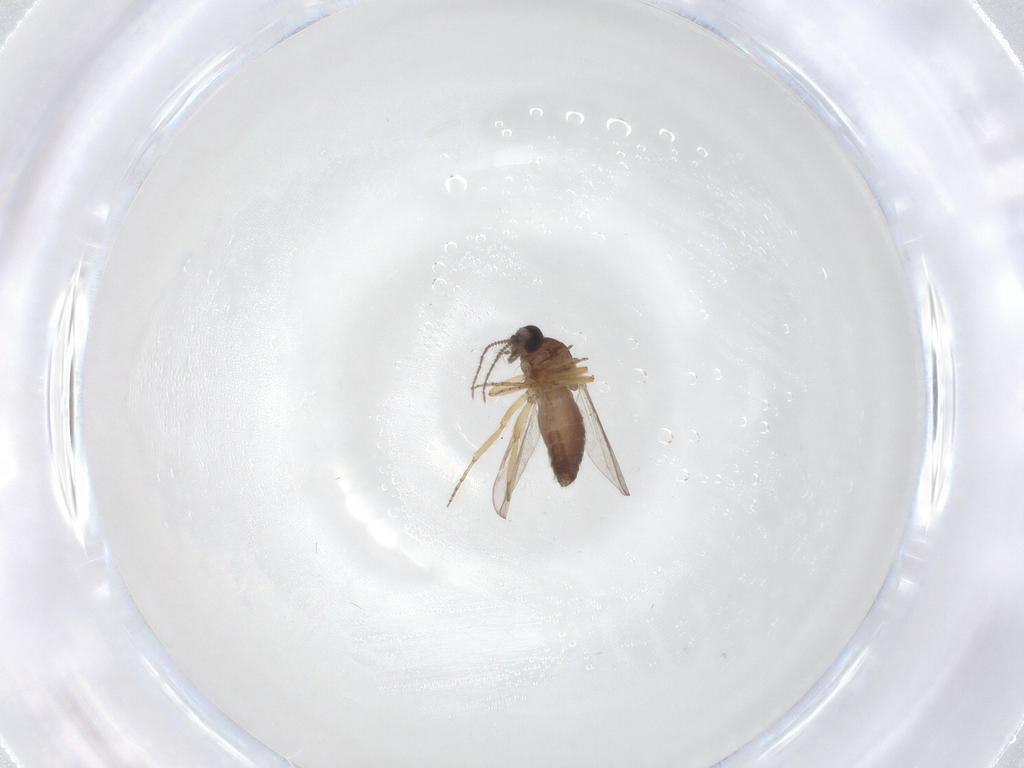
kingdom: Animalia
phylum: Arthropoda
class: Insecta
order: Diptera
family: Ceratopogonidae
